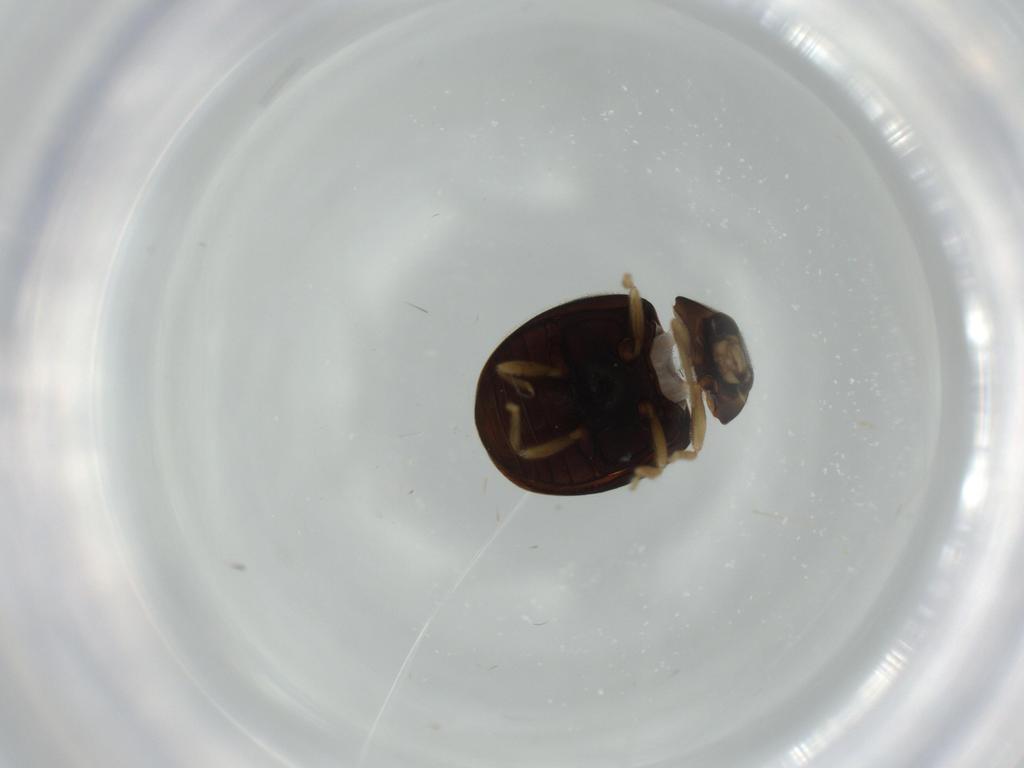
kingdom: Animalia
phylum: Arthropoda
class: Insecta
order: Coleoptera
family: Coccinellidae
